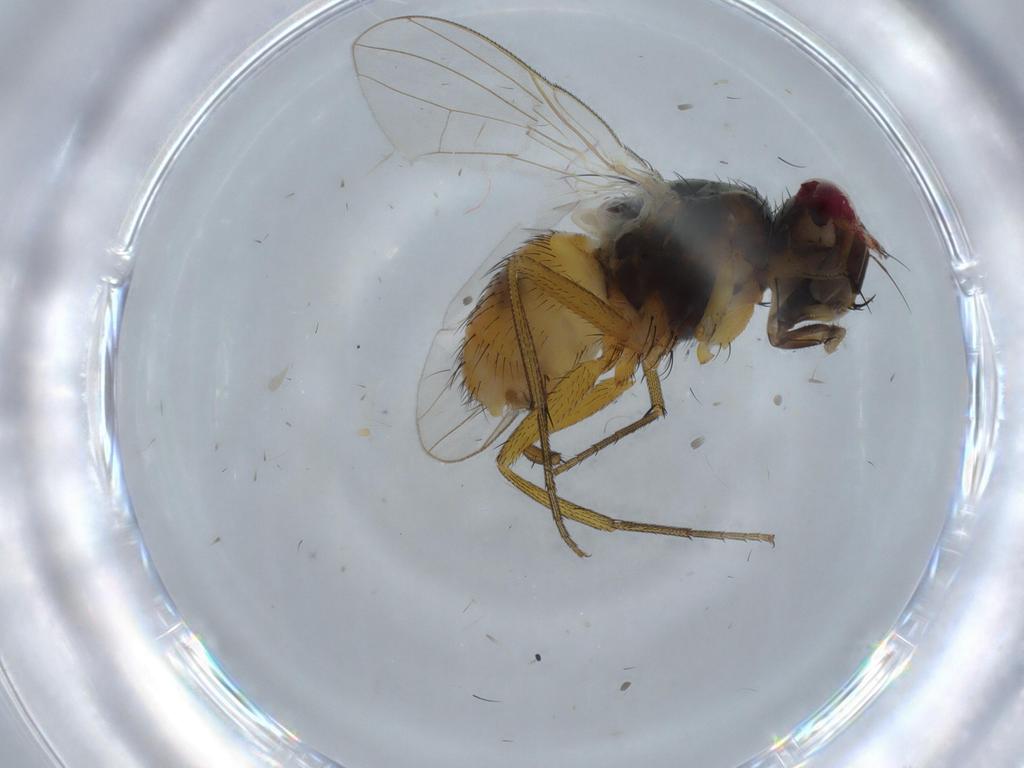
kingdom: Animalia
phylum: Arthropoda
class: Insecta
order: Diptera
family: Muscidae
